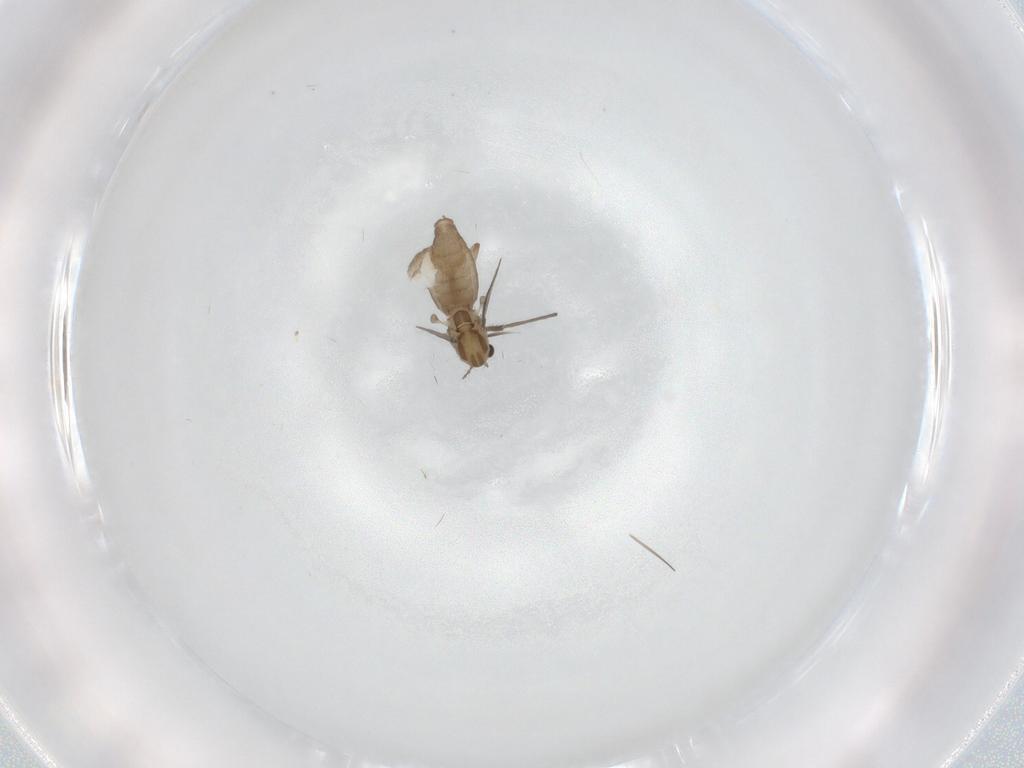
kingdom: Animalia
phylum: Arthropoda
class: Insecta
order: Diptera
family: Chironomidae
